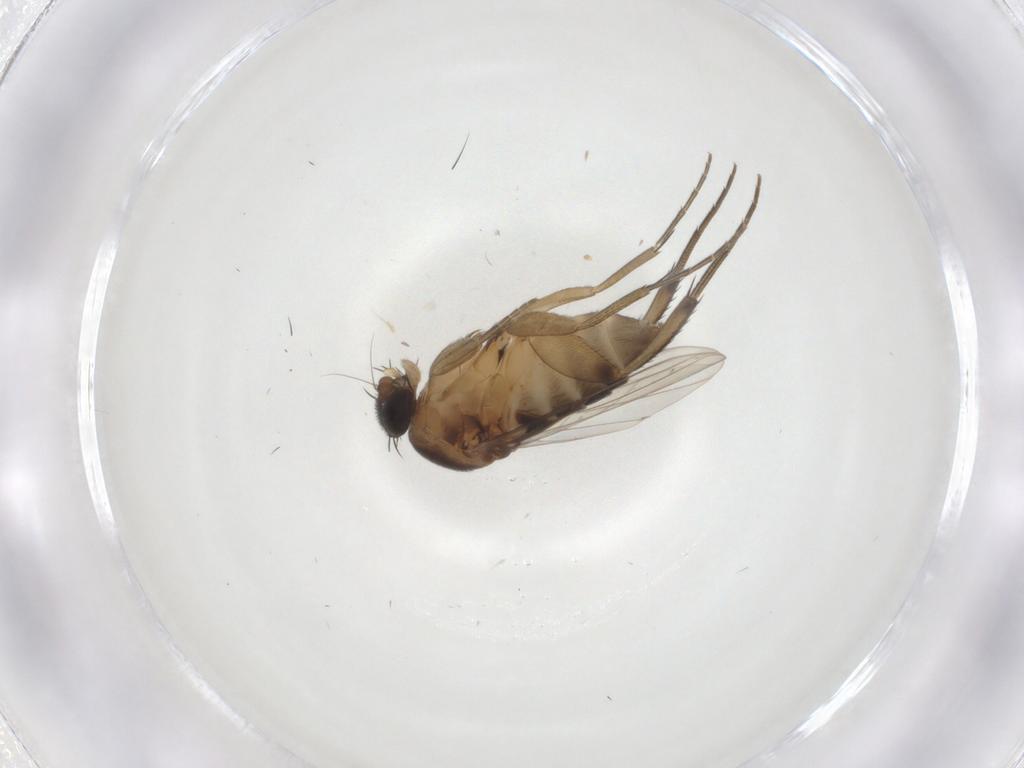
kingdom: Animalia
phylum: Arthropoda
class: Insecta
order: Diptera
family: Phoridae
